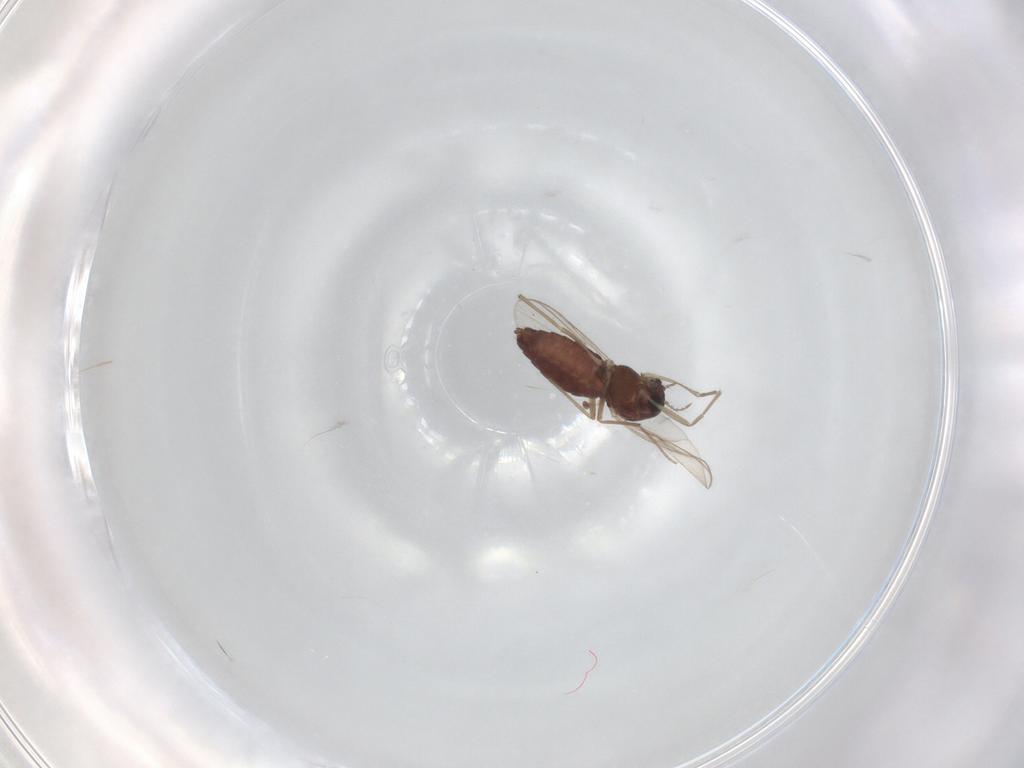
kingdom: Animalia
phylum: Arthropoda
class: Insecta
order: Diptera
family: Chironomidae
